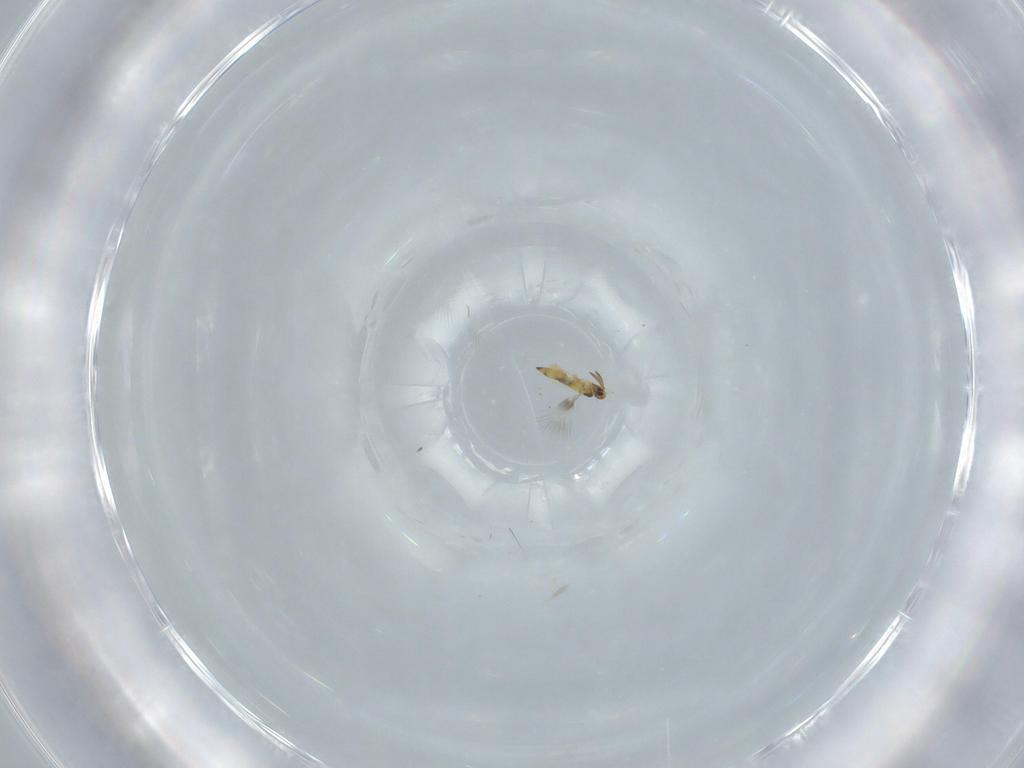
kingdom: Animalia
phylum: Arthropoda
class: Insecta
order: Hymenoptera
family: Signiphoridae
